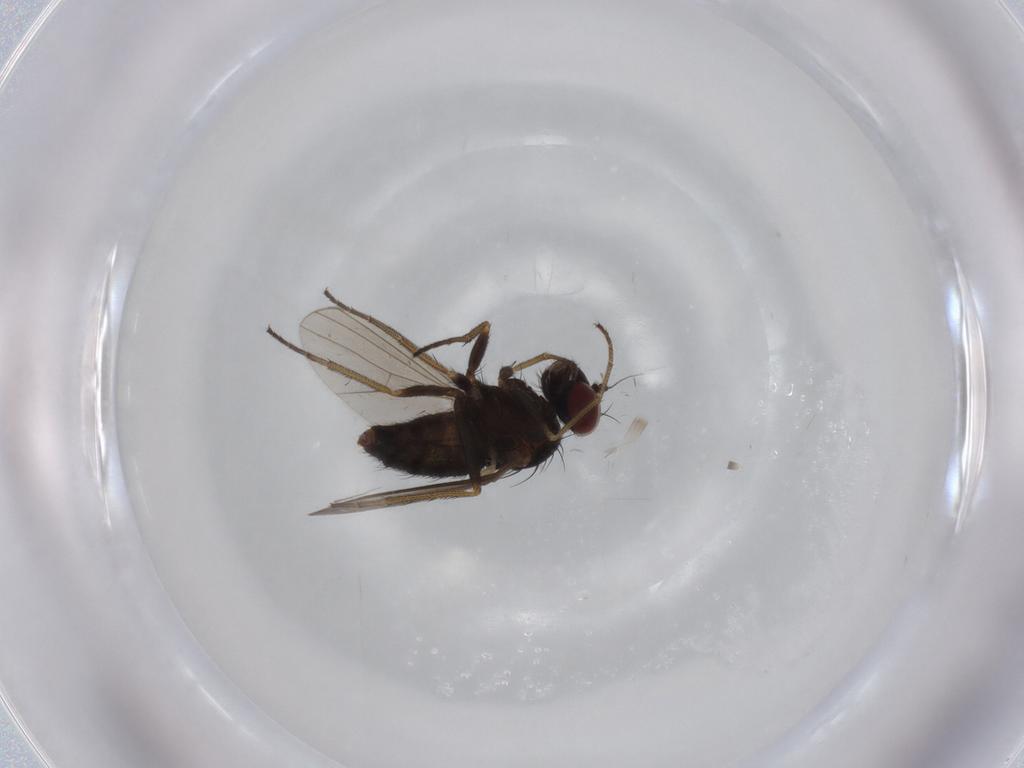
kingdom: Animalia
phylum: Arthropoda
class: Insecta
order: Diptera
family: Dolichopodidae
